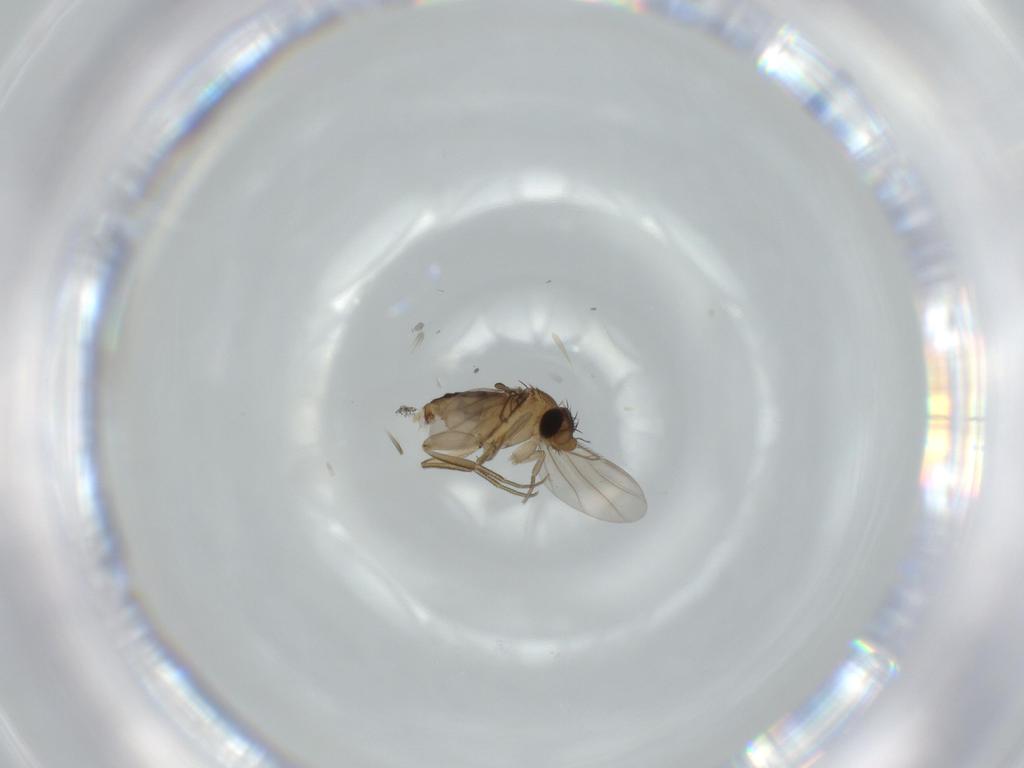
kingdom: Animalia
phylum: Arthropoda
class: Insecta
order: Diptera
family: Phoridae
